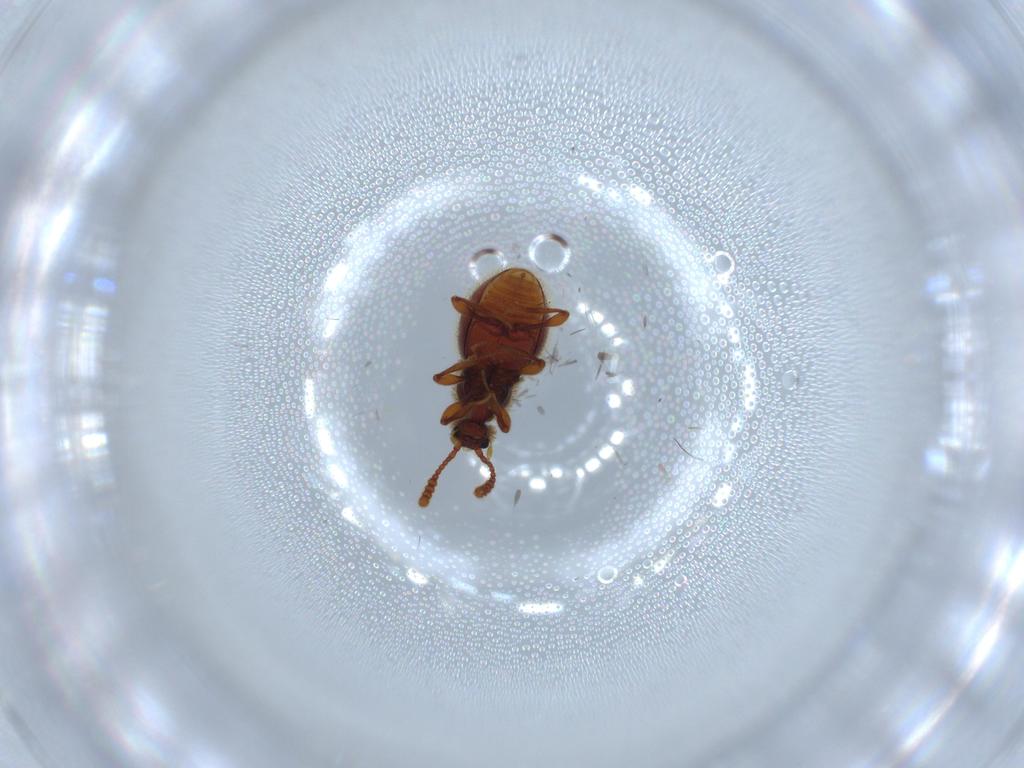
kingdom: Animalia
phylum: Arthropoda
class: Insecta
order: Coleoptera
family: Staphylinidae
